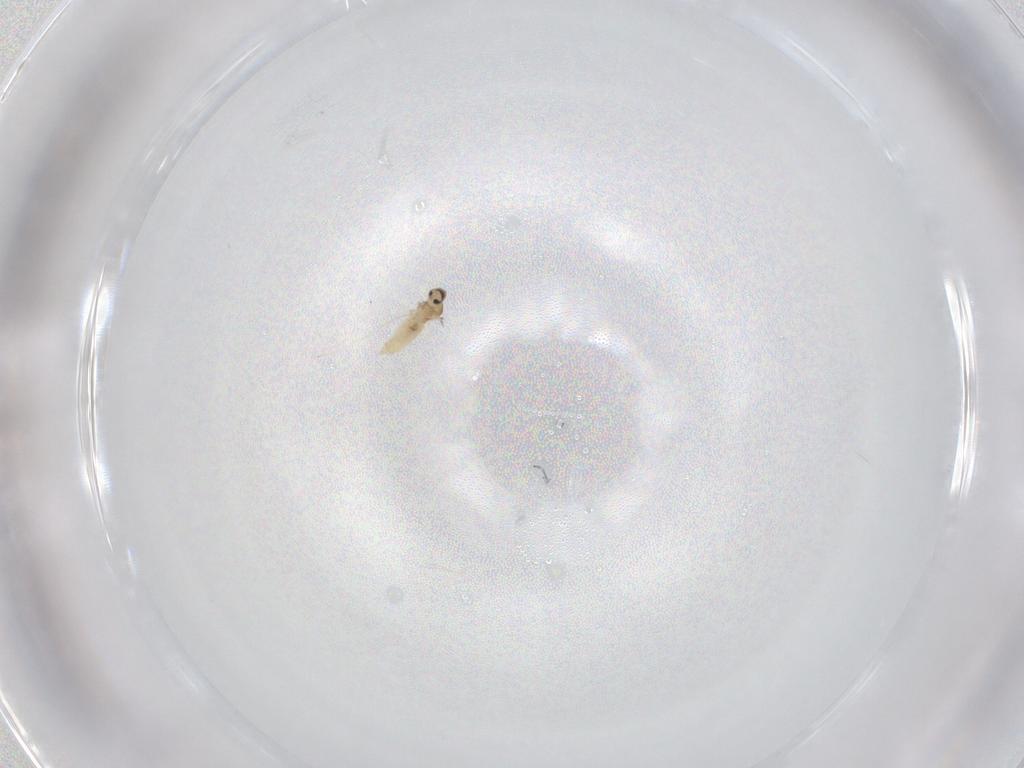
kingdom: Animalia
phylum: Arthropoda
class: Insecta
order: Diptera
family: Cecidomyiidae
